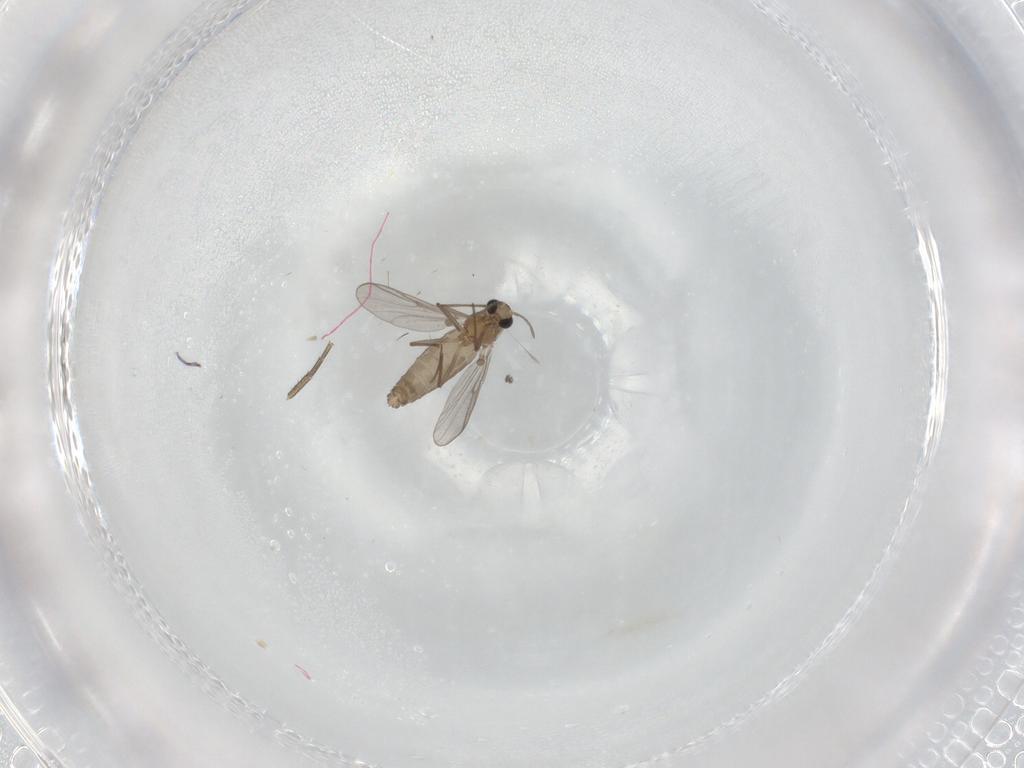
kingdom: Animalia
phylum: Arthropoda
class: Insecta
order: Diptera
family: Chironomidae
